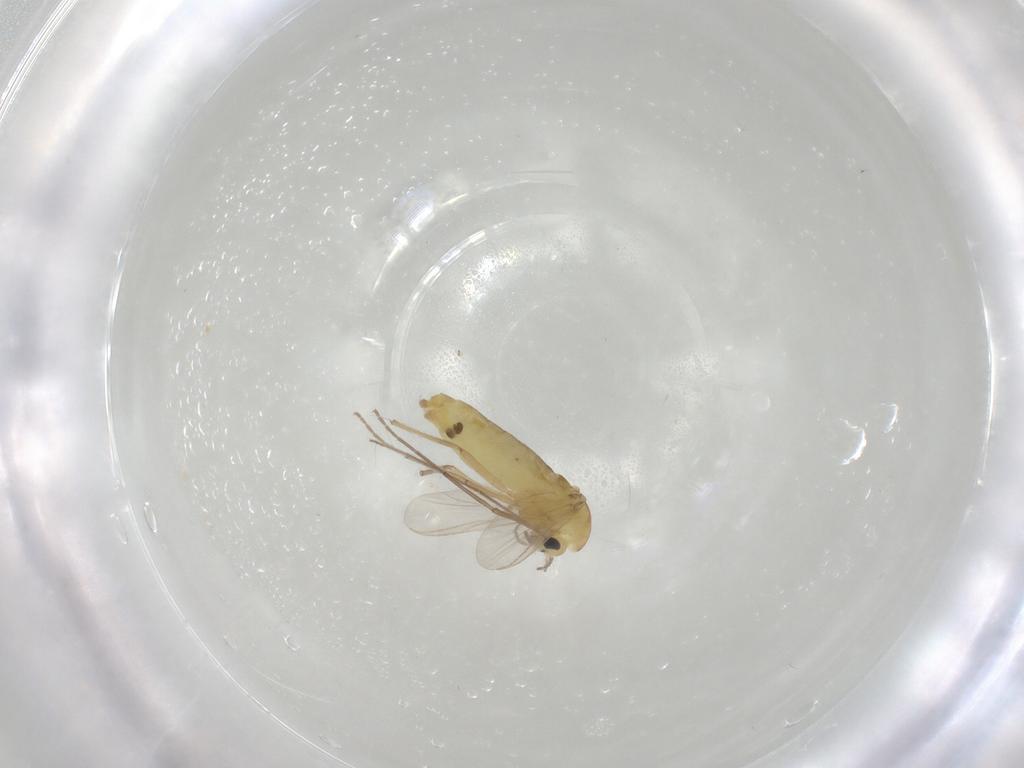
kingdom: Animalia
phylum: Arthropoda
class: Insecta
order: Diptera
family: Chironomidae
